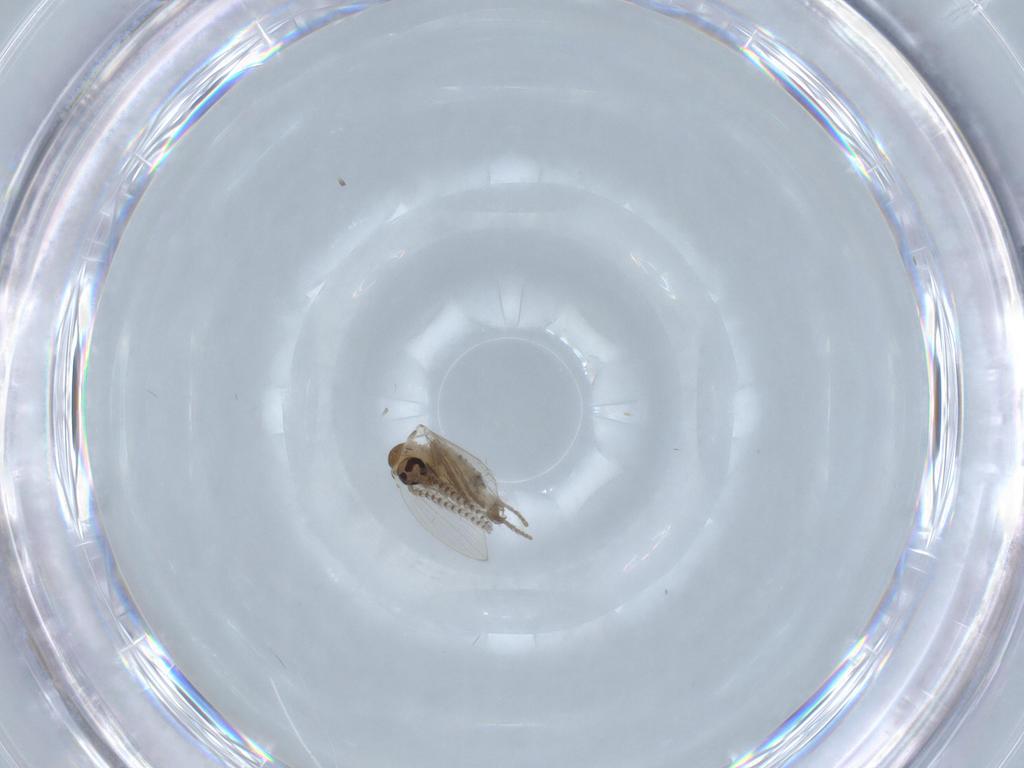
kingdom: Animalia
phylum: Arthropoda
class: Insecta
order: Diptera
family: Psychodidae
